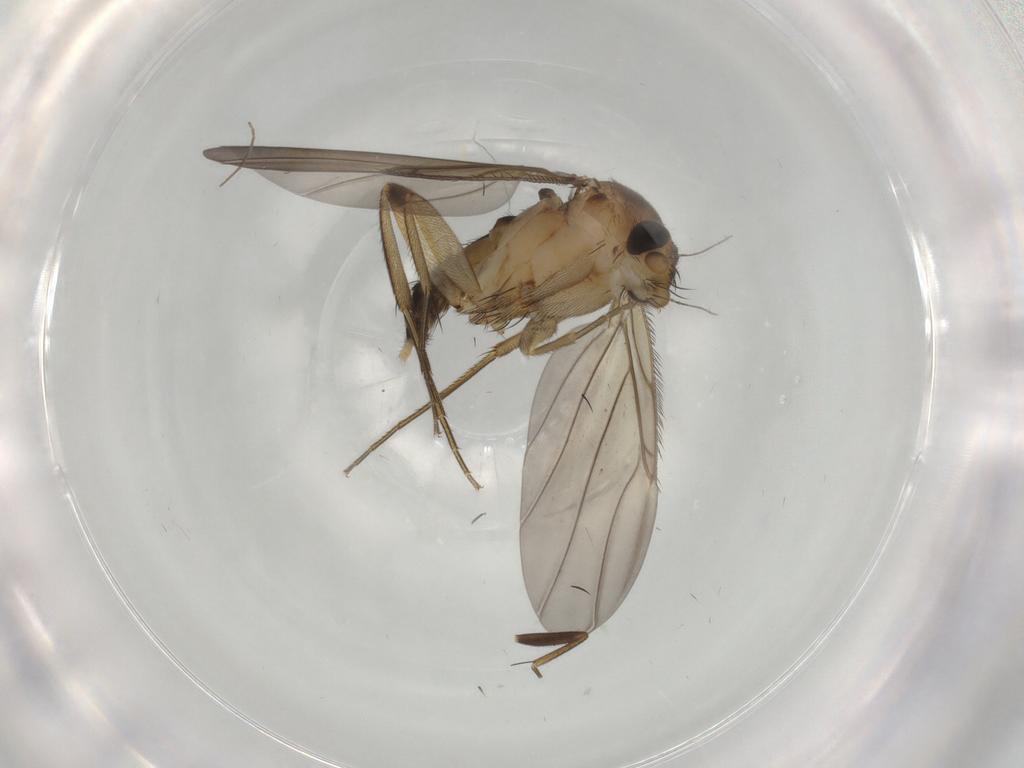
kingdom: Animalia
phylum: Arthropoda
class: Insecta
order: Diptera
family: Phoridae
